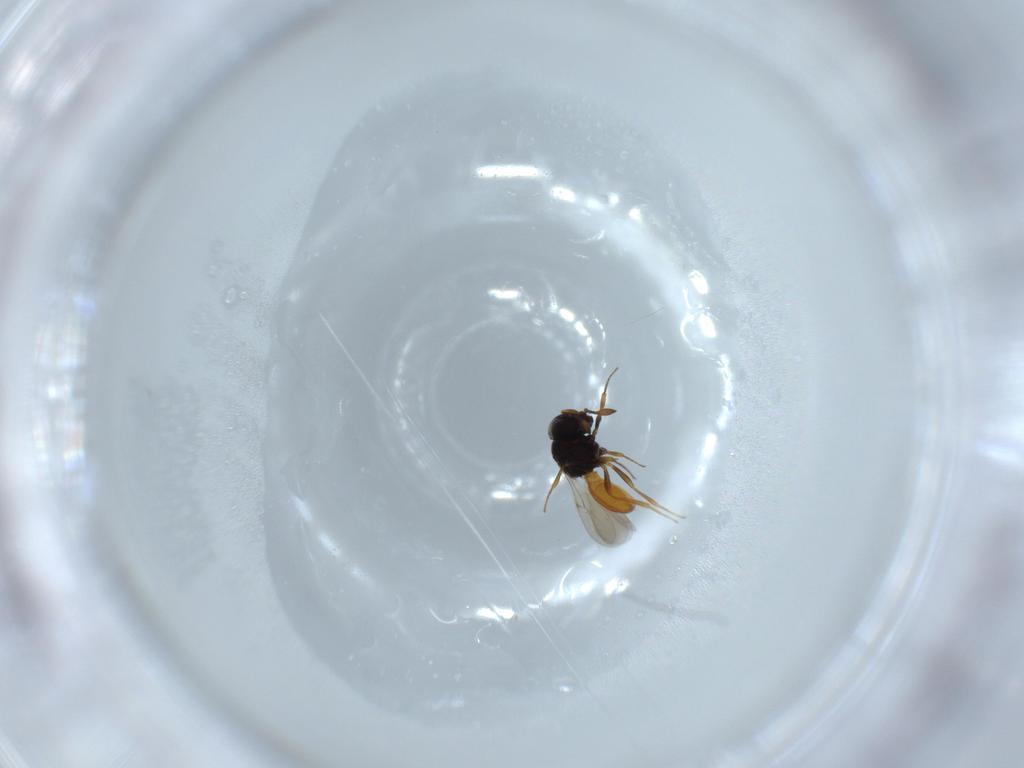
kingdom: Animalia
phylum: Arthropoda
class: Insecta
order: Hymenoptera
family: Scelionidae
